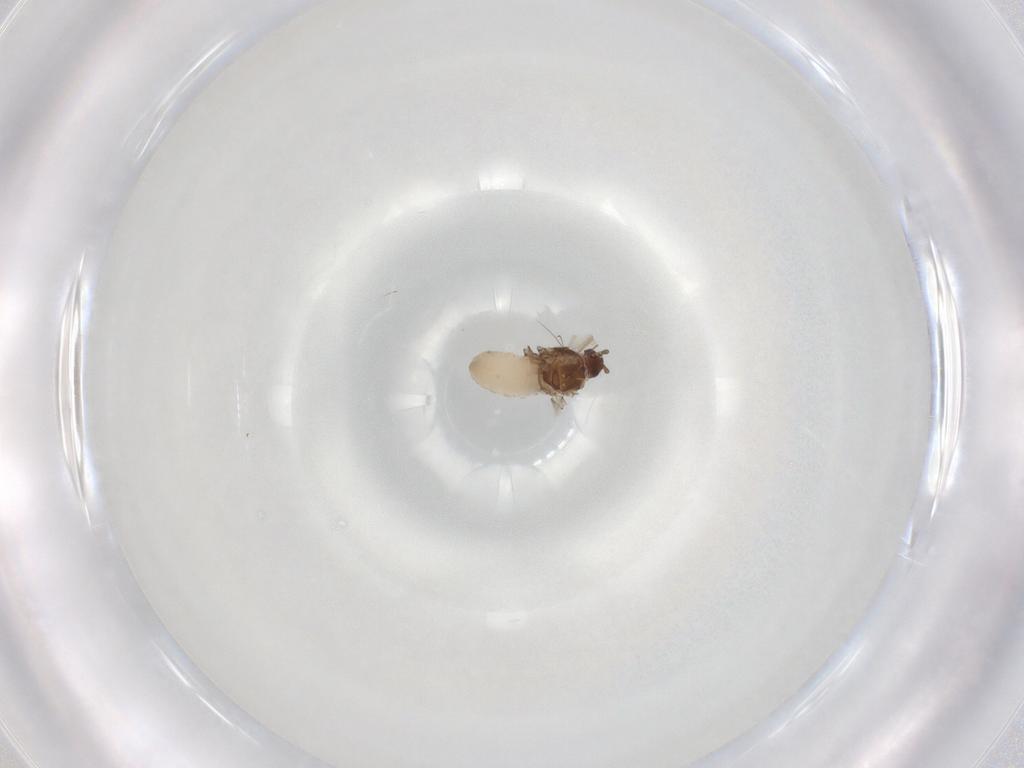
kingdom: Animalia
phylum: Arthropoda
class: Insecta
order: Hemiptera
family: Aphididae
